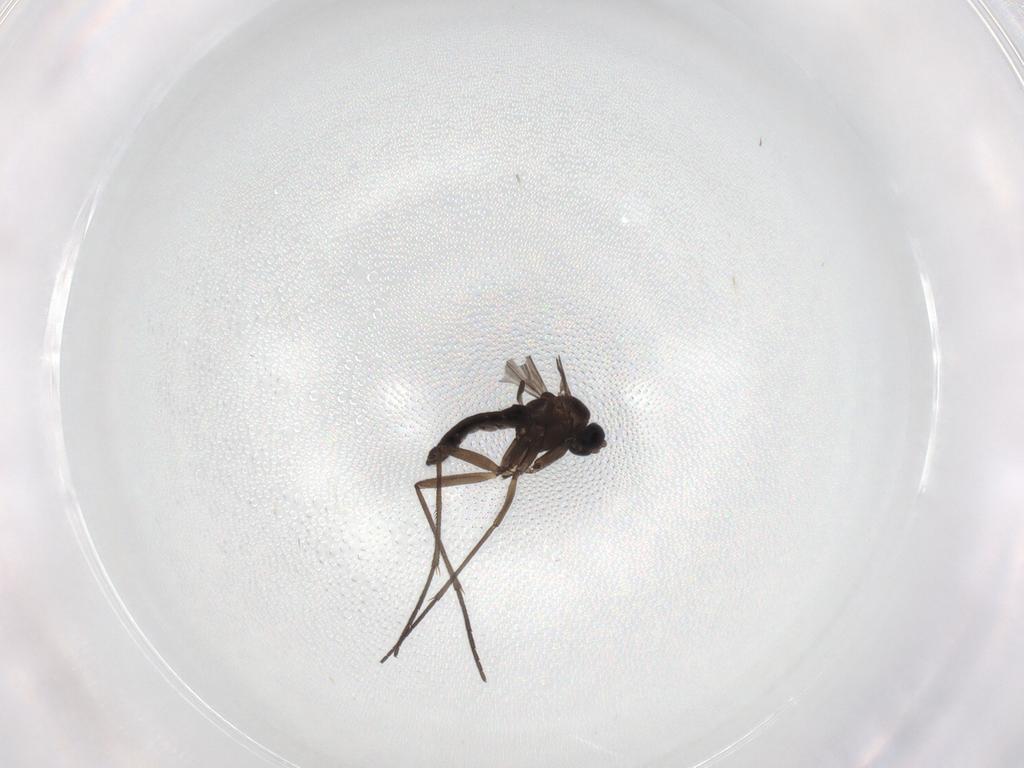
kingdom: Animalia
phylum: Arthropoda
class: Insecta
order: Diptera
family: Sciaridae
